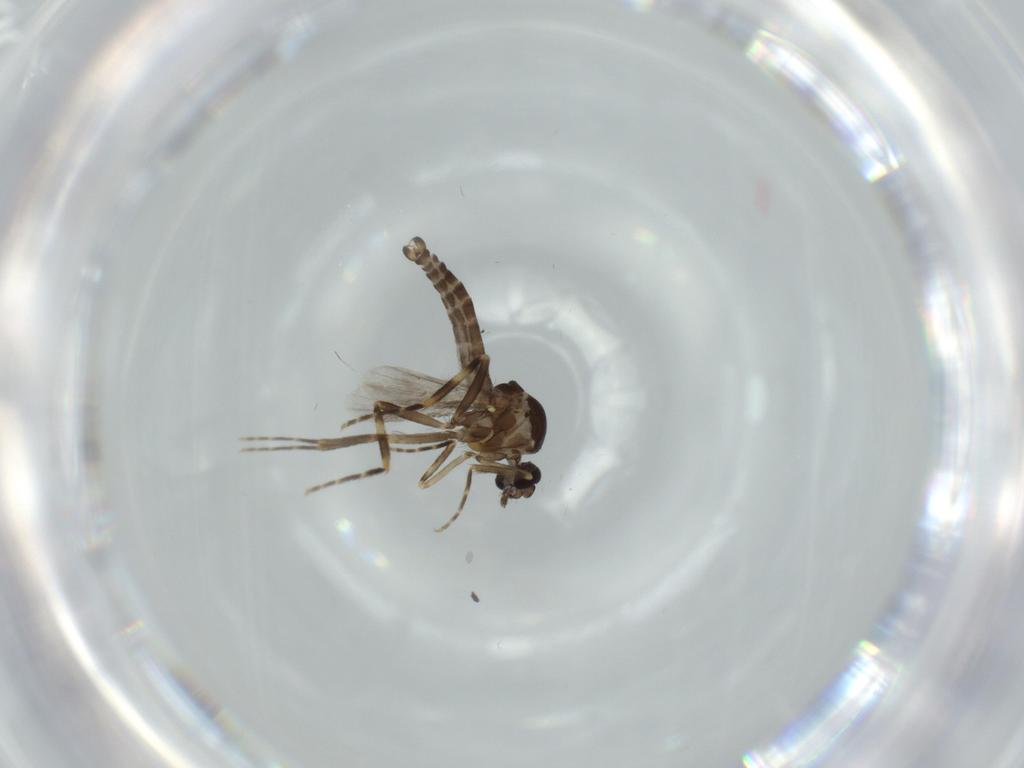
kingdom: Animalia
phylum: Arthropoda
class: Insecta
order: Diptera
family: Ceratopogonidae
